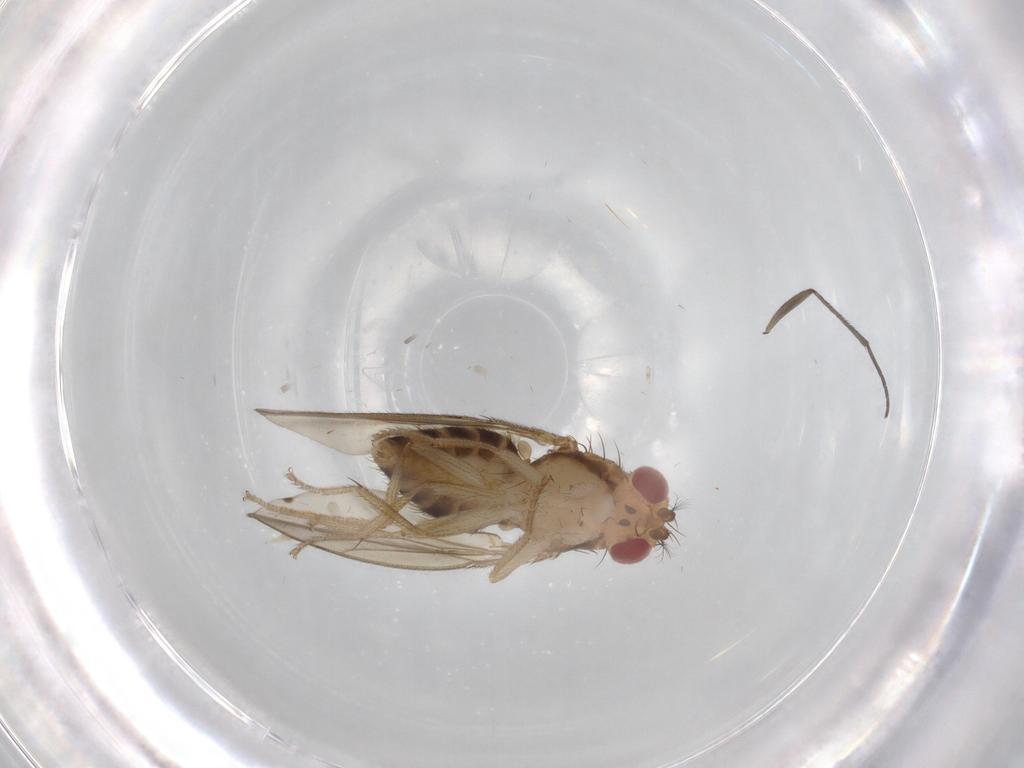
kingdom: Animalia
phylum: Arthropoda
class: Insecta
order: Diptera
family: Drosophilidae
